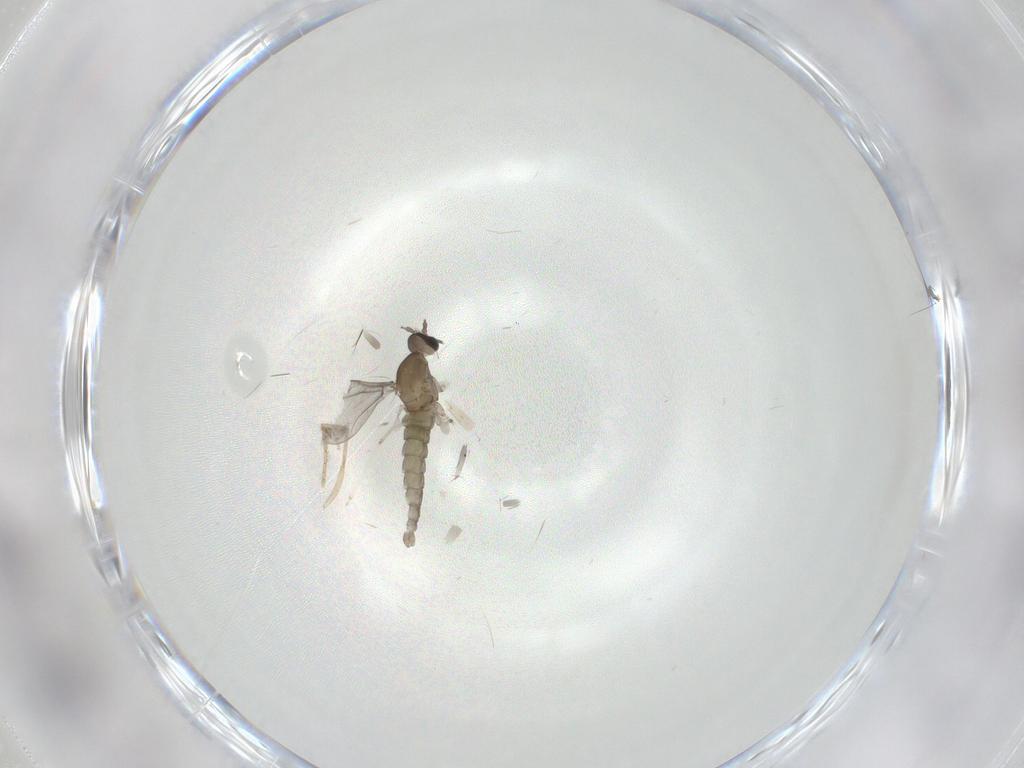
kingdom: Animalia
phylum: Arthropoda
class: Insecta
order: Diptera
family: Psychodidae
